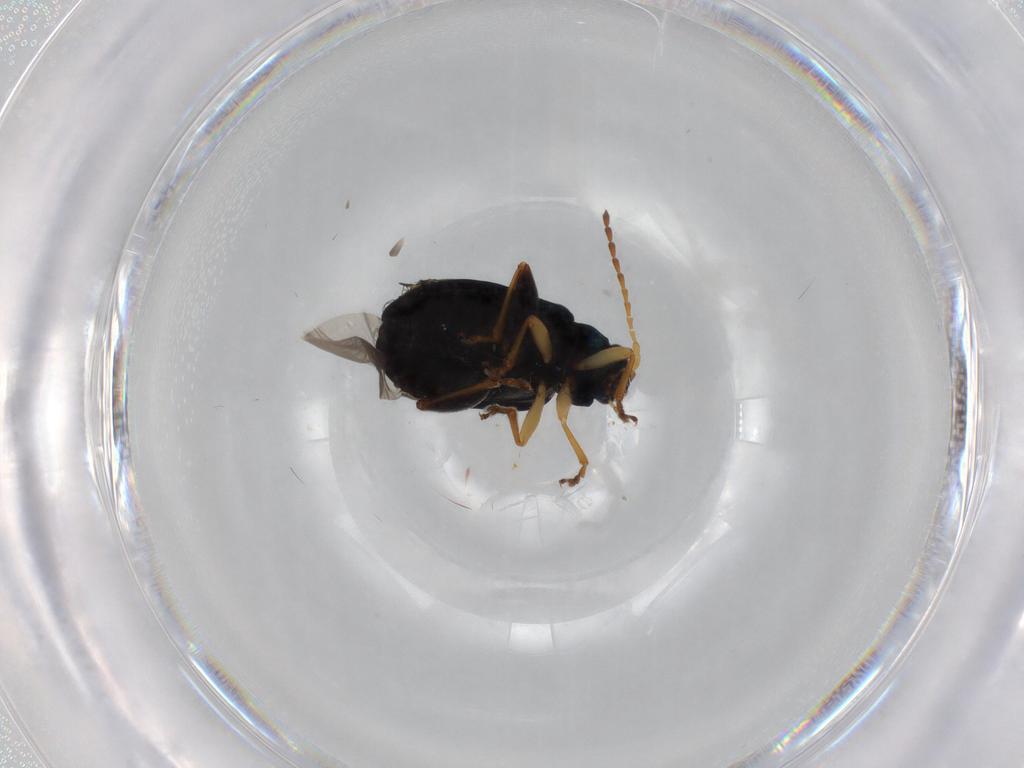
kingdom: Animalia
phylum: Arthropoda
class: Insecta
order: Coleoptera
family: Chrysomelidae
